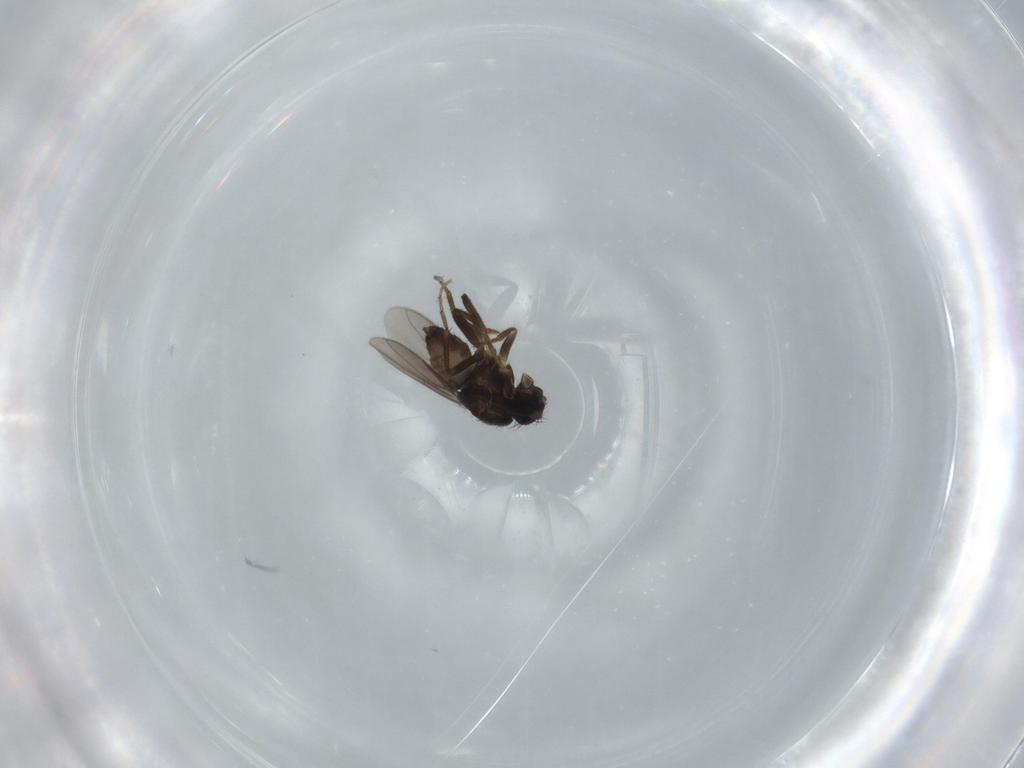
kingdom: Animalia
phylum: Arthropoda
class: Insecta
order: Diptera
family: Sphaeroceridae
